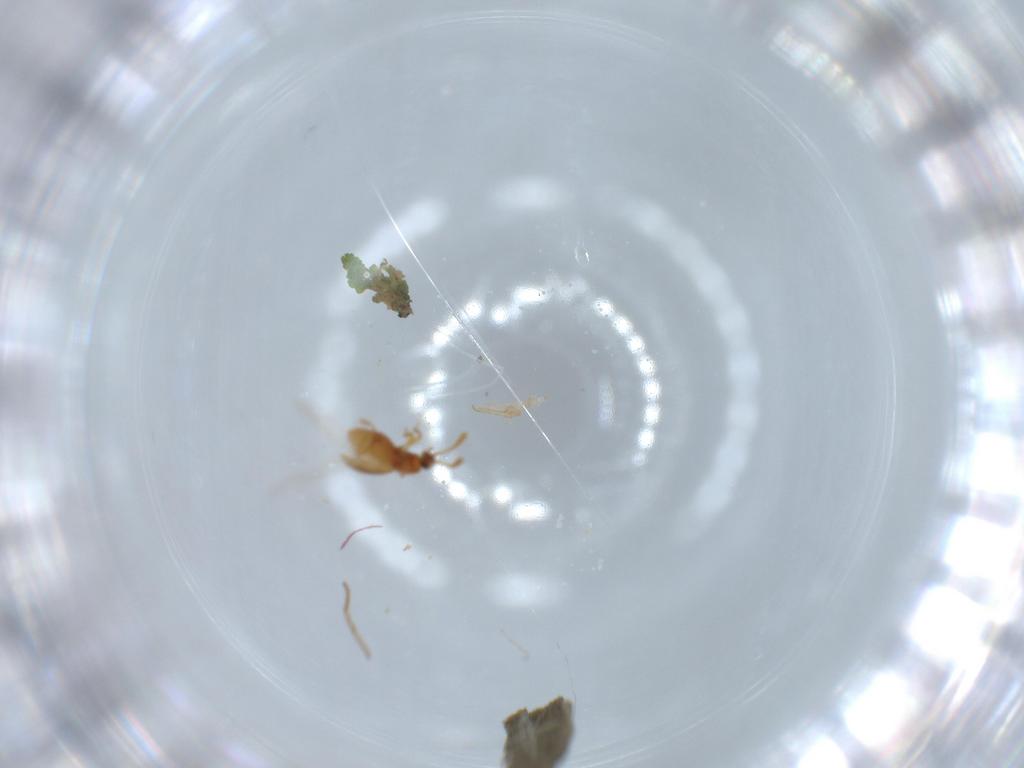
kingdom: Animalia
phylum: Arthropoda
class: Insecta
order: Coleoptera
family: Staphylinidae
